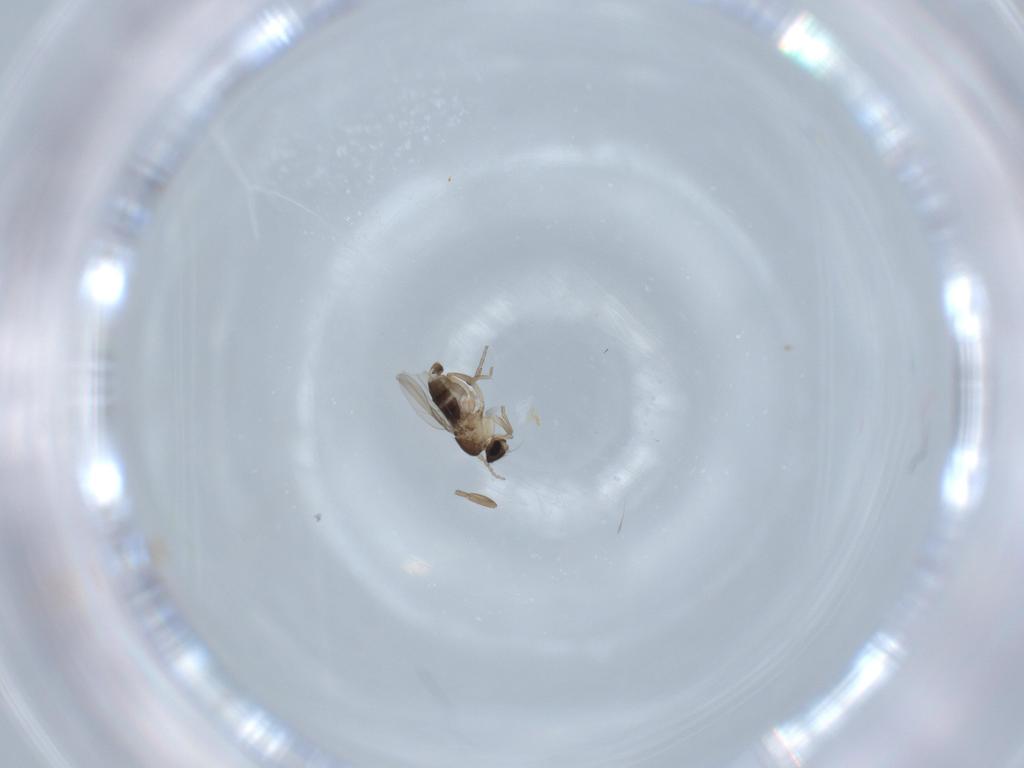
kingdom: Animalia
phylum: Arthropoda
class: Insecta
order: Diptera
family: Phoridae
